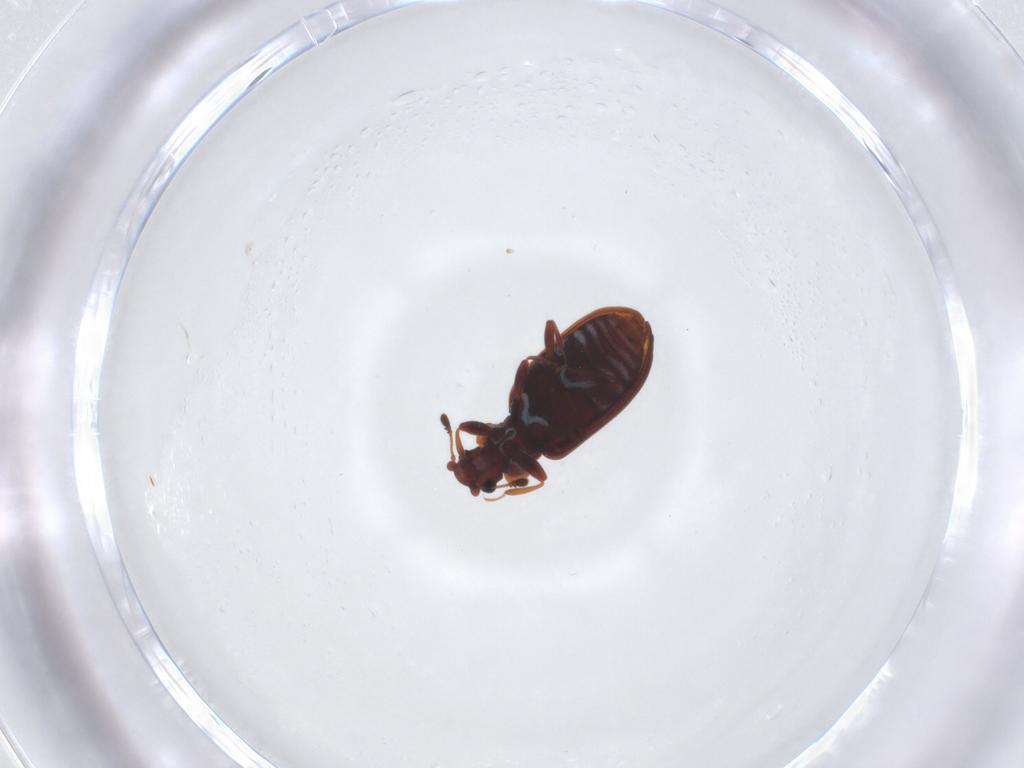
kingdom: Animalia
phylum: Arthropoda
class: Insecta
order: Coleoptera
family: Latridiidae
